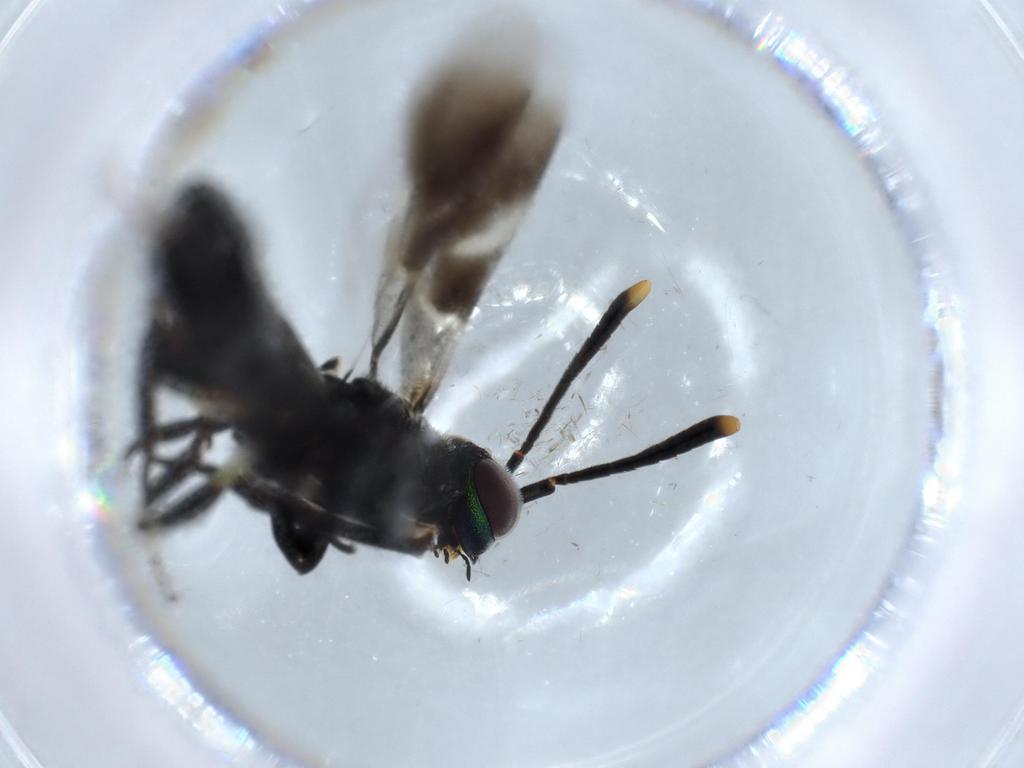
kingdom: Animalia
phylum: Arthropoda
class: Insecta
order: Hymenoptera
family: Eupelmidae
